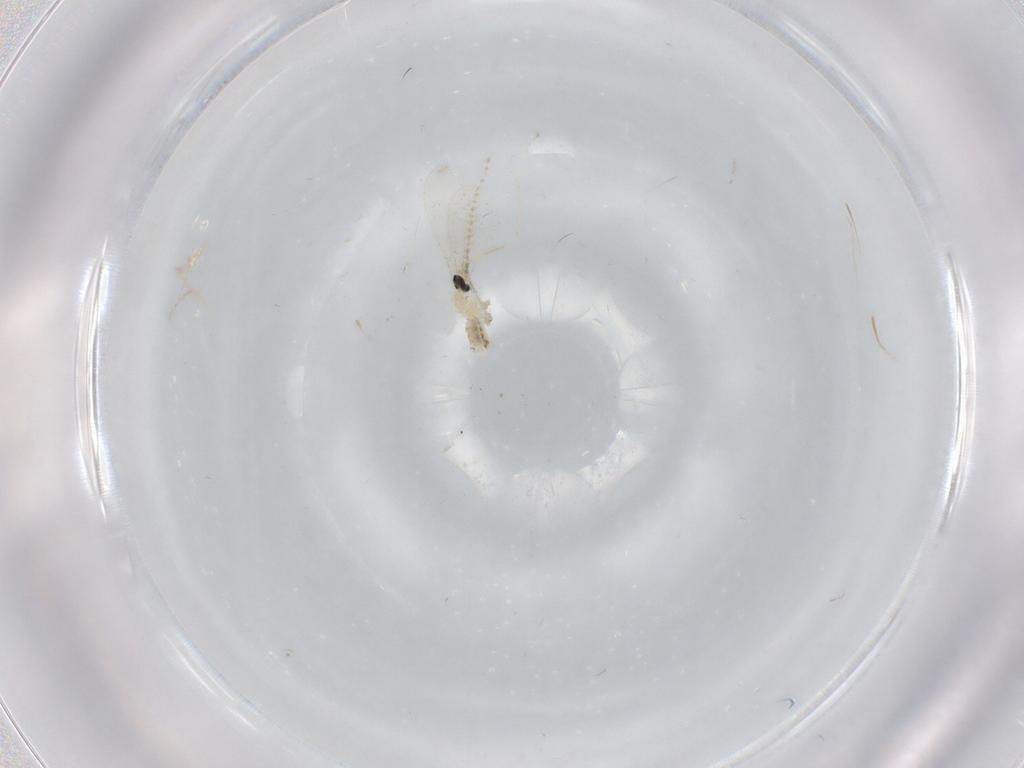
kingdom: Animalia
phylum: Arthropoda
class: Insecta
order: Diptera
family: Cecidomyiidae
